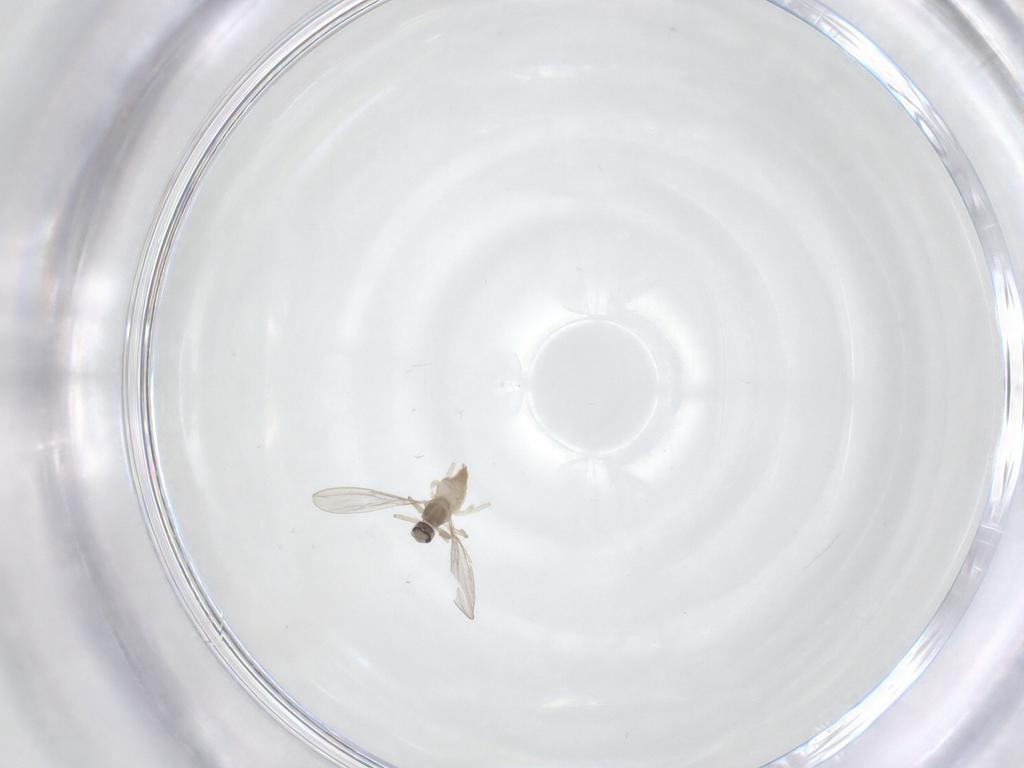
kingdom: Animalia
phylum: Arthropoda
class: Insecta
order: Diptera
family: Cecidomyiidae
